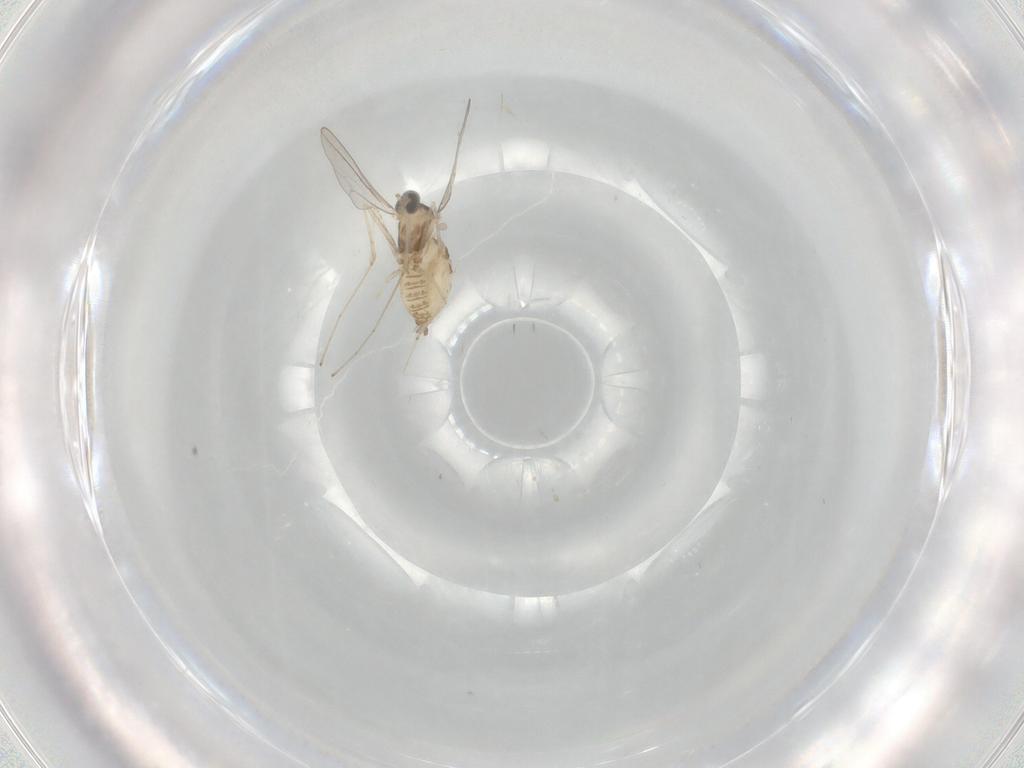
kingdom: Animalia
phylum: Arthropoda
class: Insecta
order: Diptera
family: Cecidomyiidae
